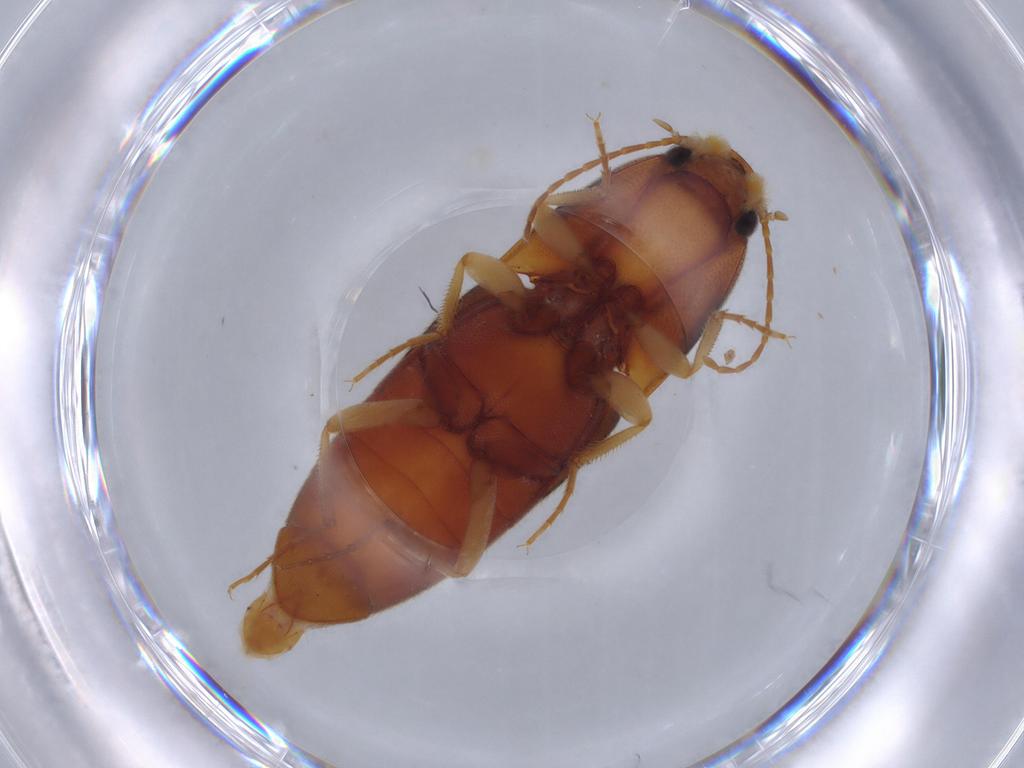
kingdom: Animalia
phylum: Arthropoda
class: Insecta
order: Coleoptera
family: Elateridae
